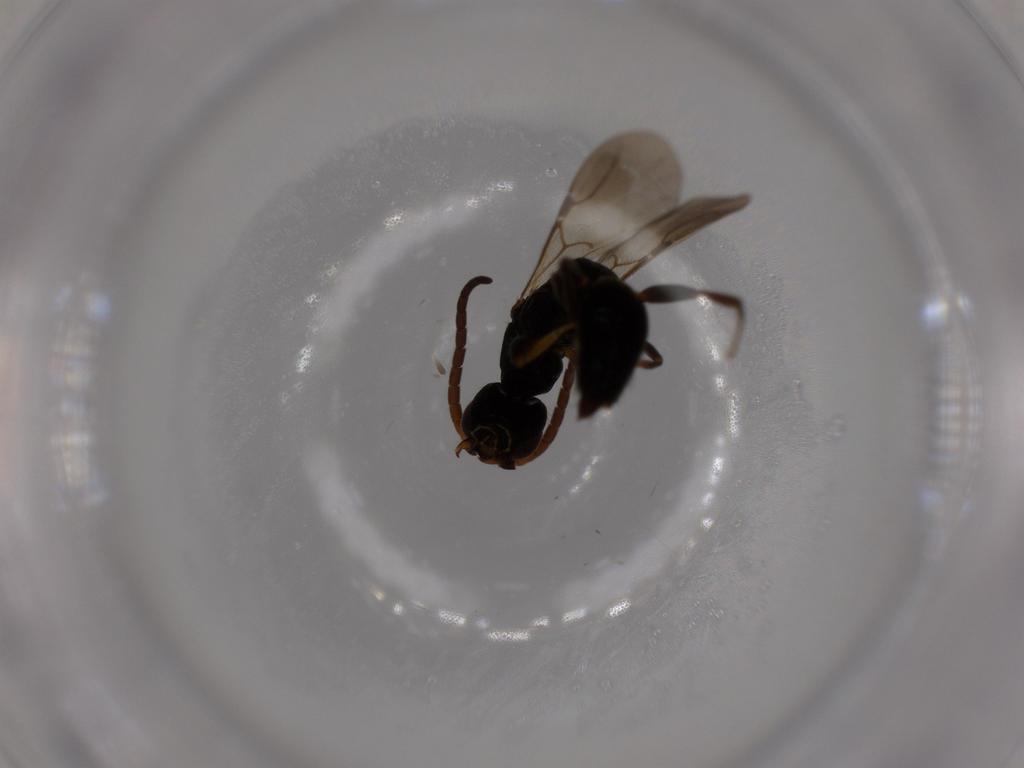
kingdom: Animalia
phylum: Arthropoda
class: Insecta
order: Hymenoptera
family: Bethylidae
